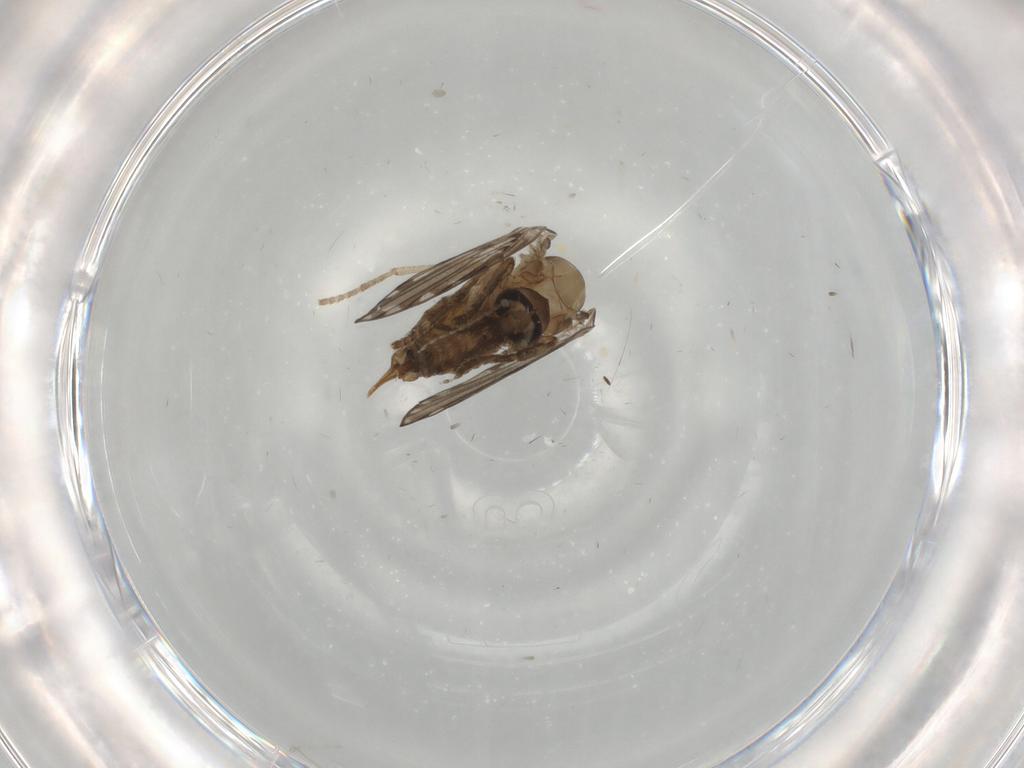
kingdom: Animalia
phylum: Arthropoda
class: Insecta
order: Diptera
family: Psychodidae
